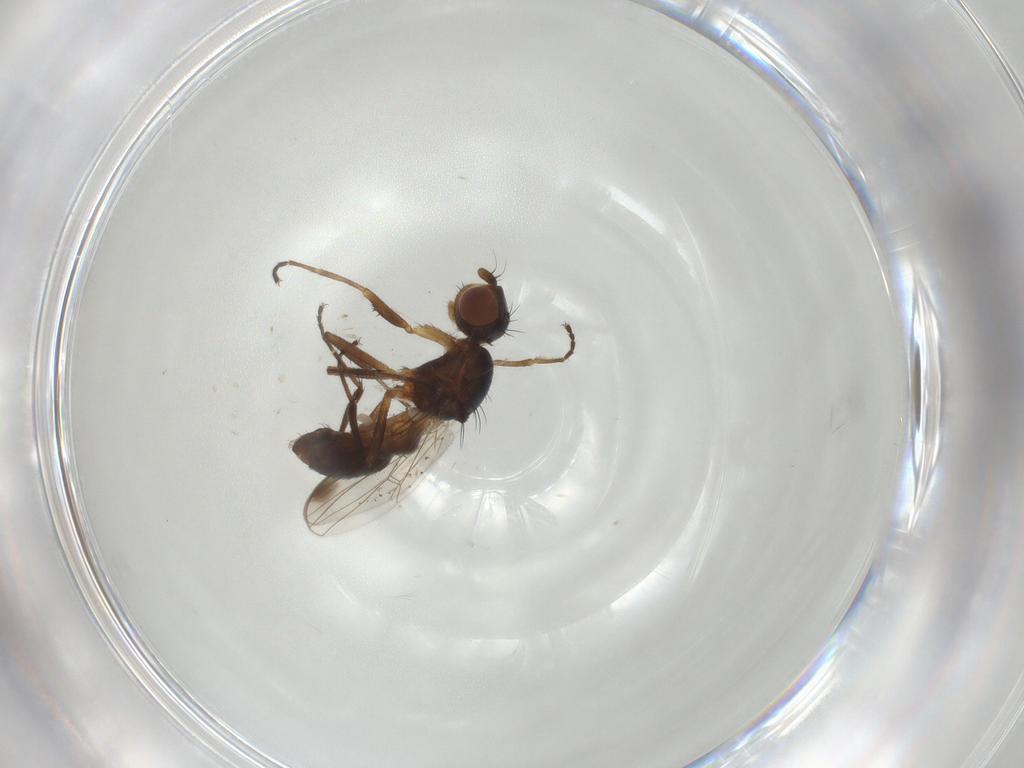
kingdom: Animalia
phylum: Arthropoda
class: Insecta
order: Diptera
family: Sepsidae
